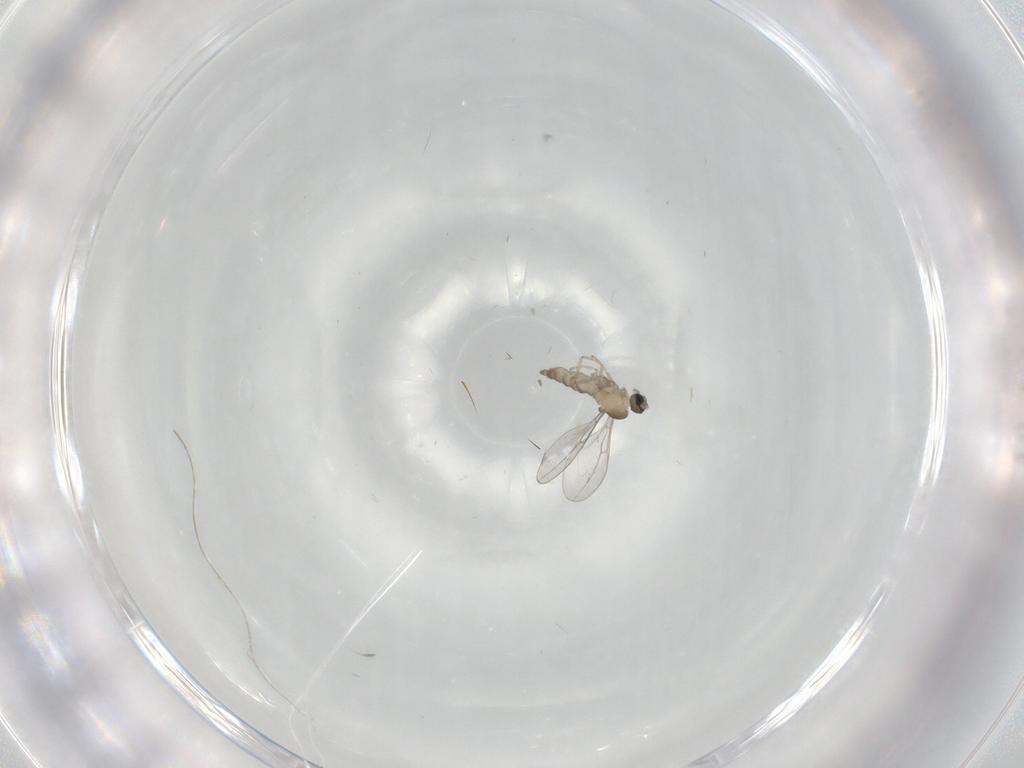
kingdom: Animalia
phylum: Arthropoda
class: Insecta
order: Diptera
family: Cecidomyiidae
